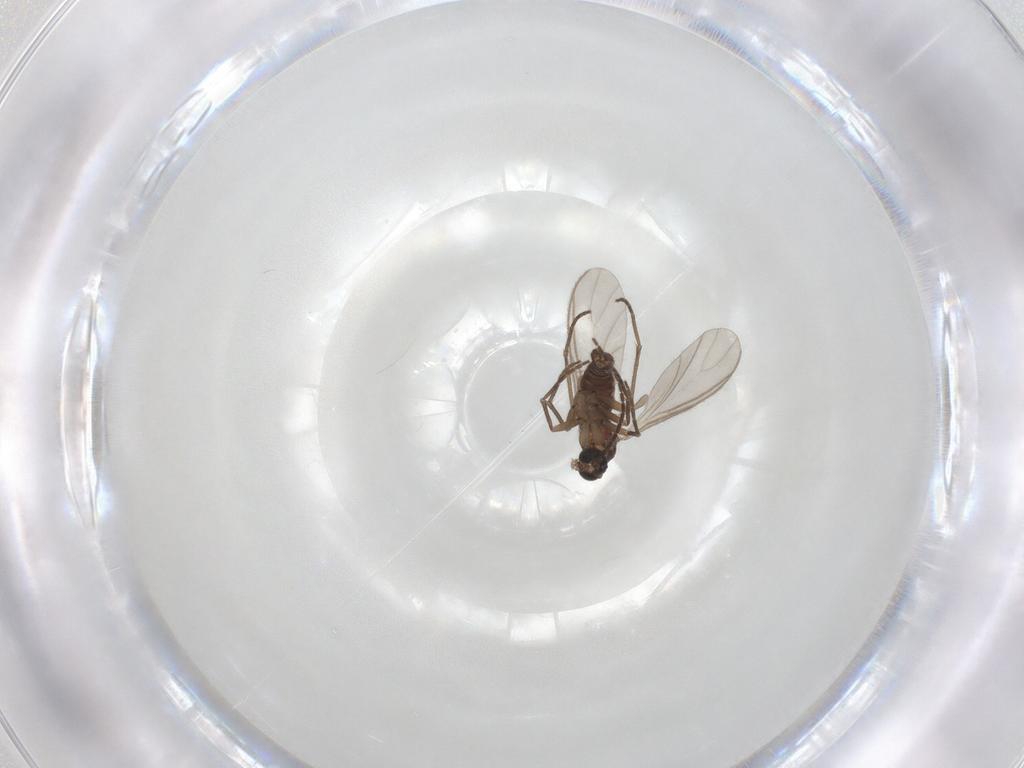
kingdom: Animalia
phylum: Arthropoda
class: Insecta
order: Diptera
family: Sciaridae
